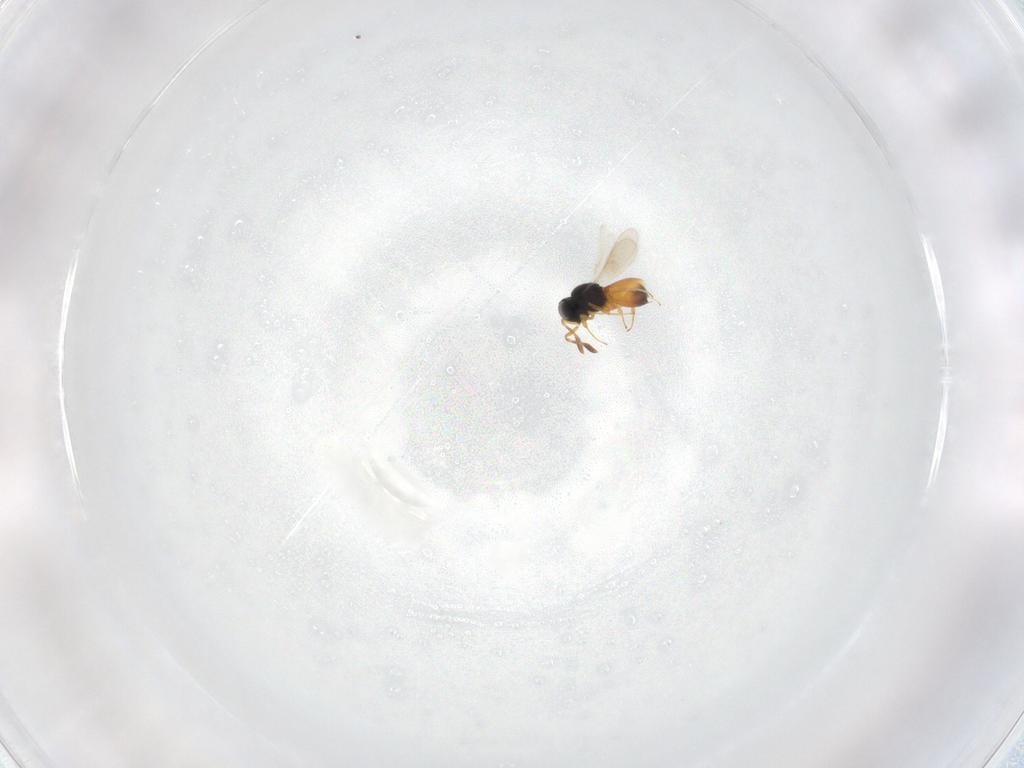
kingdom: Animalia
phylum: Arthropoda
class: Insecta
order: Hymenoptera
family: Scelionidae
